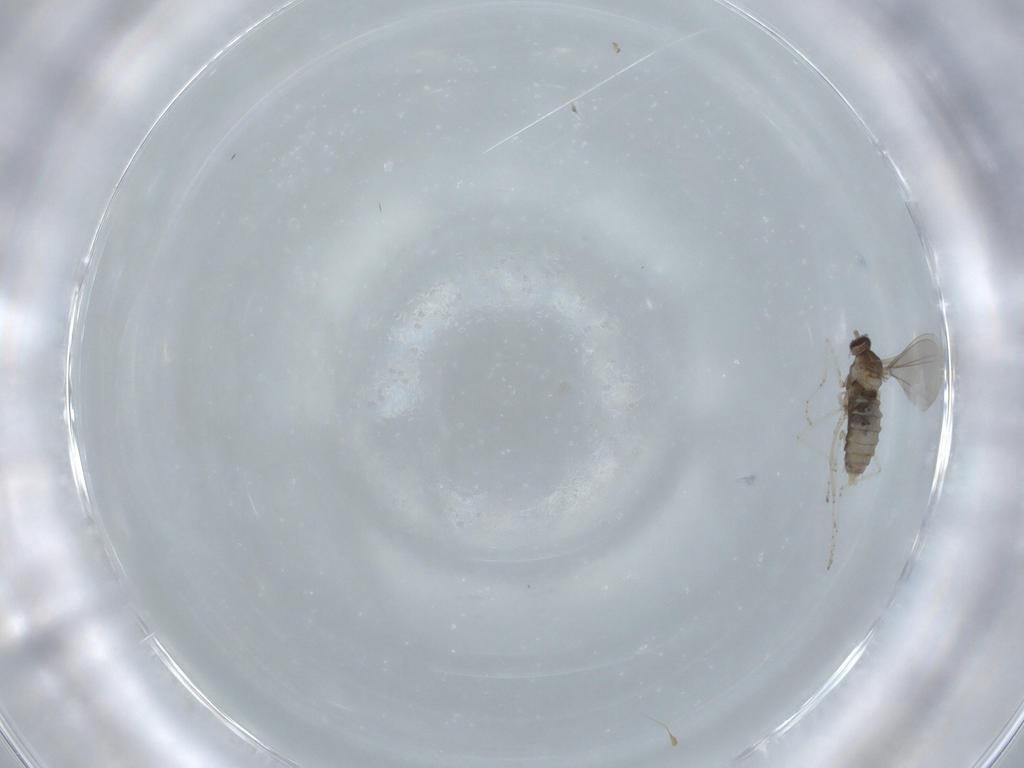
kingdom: Animalia
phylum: Arthropoda
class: Insecta
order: Diptera
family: Cecidomyiidae
